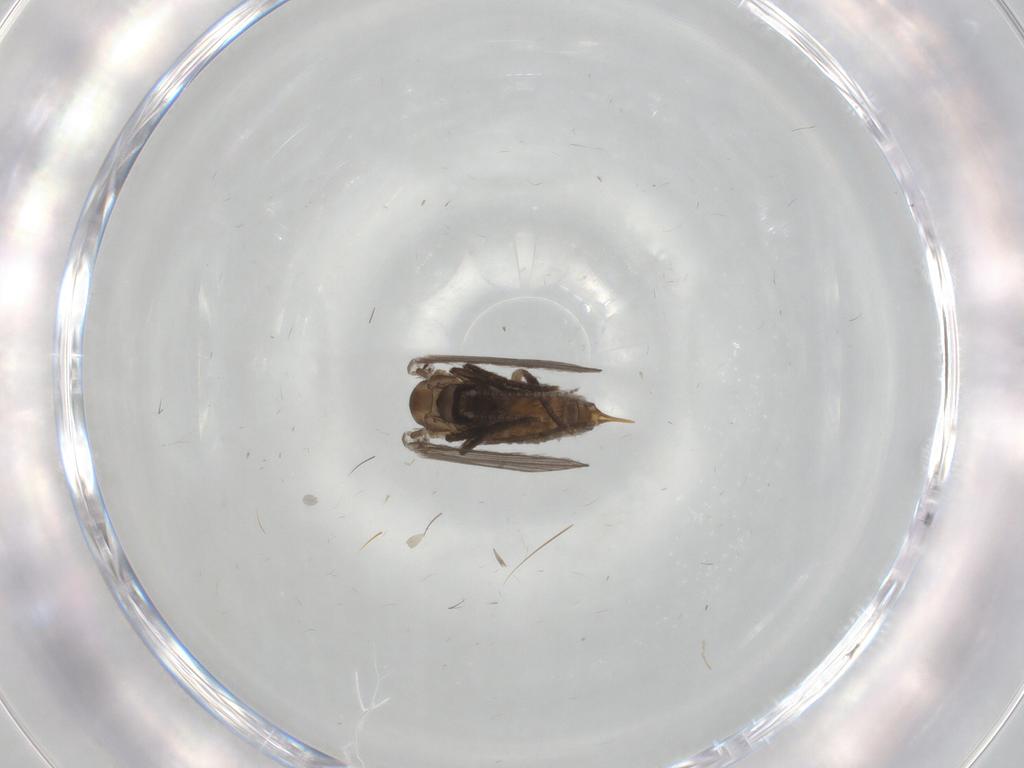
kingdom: Animalia
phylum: Arthropoda
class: Insecta
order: Diptera
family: Psychodidae
